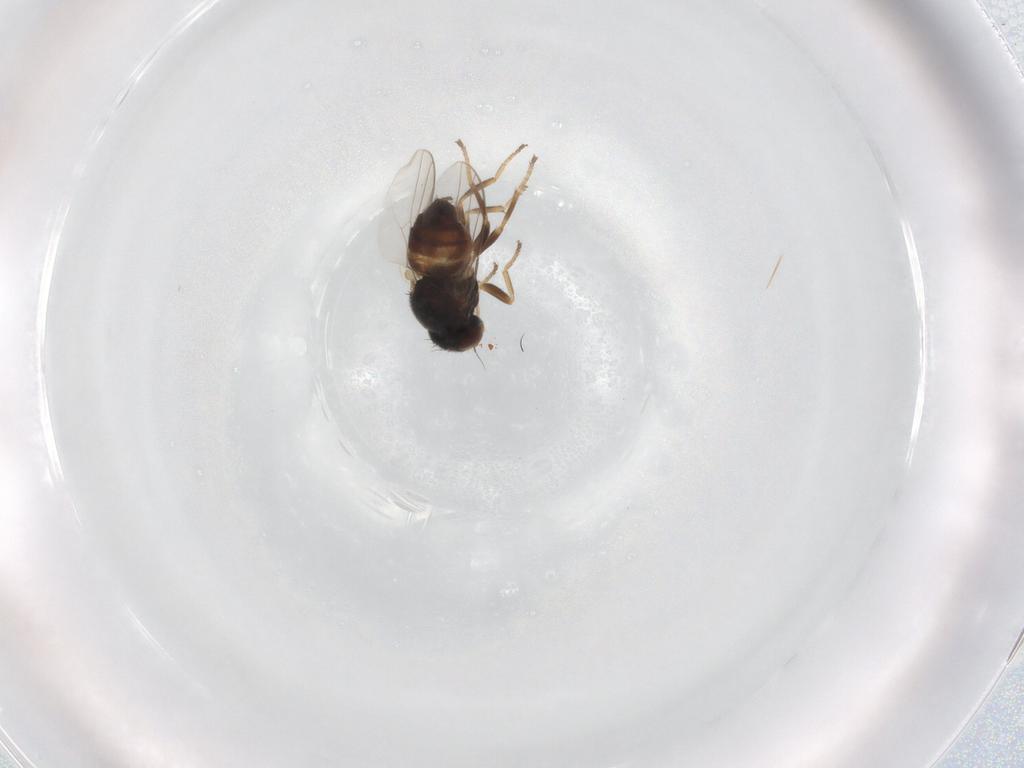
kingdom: Animalia
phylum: Arthropoda
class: Insecta
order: Diptera
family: Chloropidae
